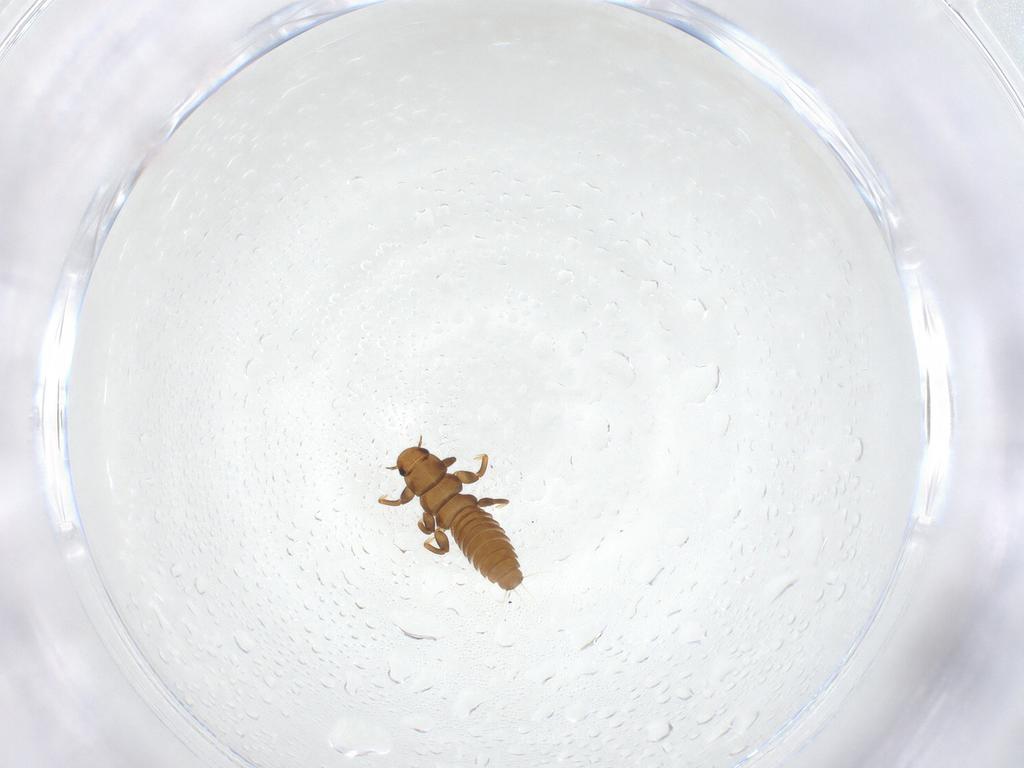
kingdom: Animalia
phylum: Arthropoda
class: Insecta
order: Coleoptera
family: Meloidae
